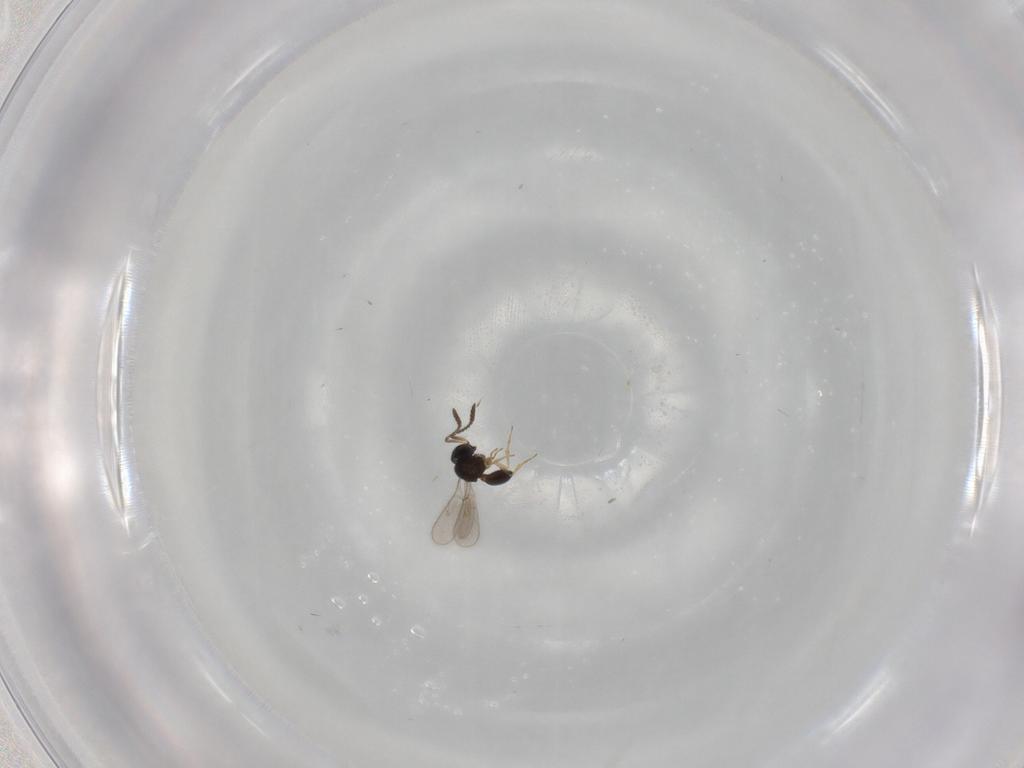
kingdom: Animalia
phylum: Arthropoda
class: Insecta
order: Hymenoptera
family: Scelionidae
